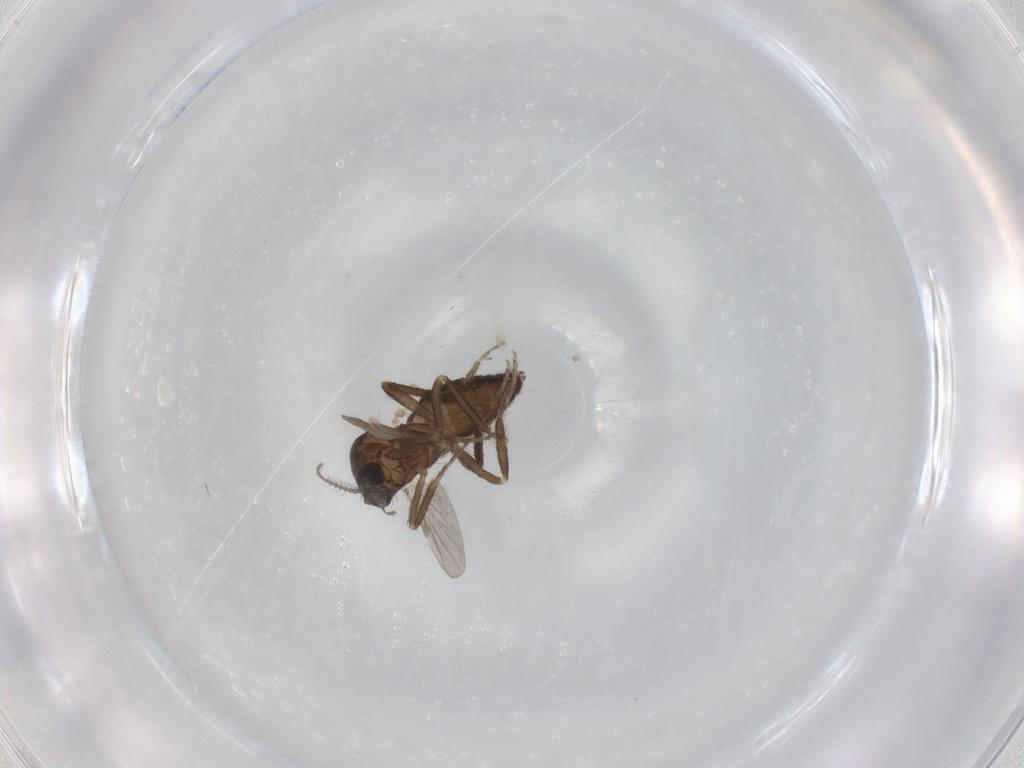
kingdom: Animalia
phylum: Arthropoda
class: Insecta
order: Diptera
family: Ceratopogonidae
